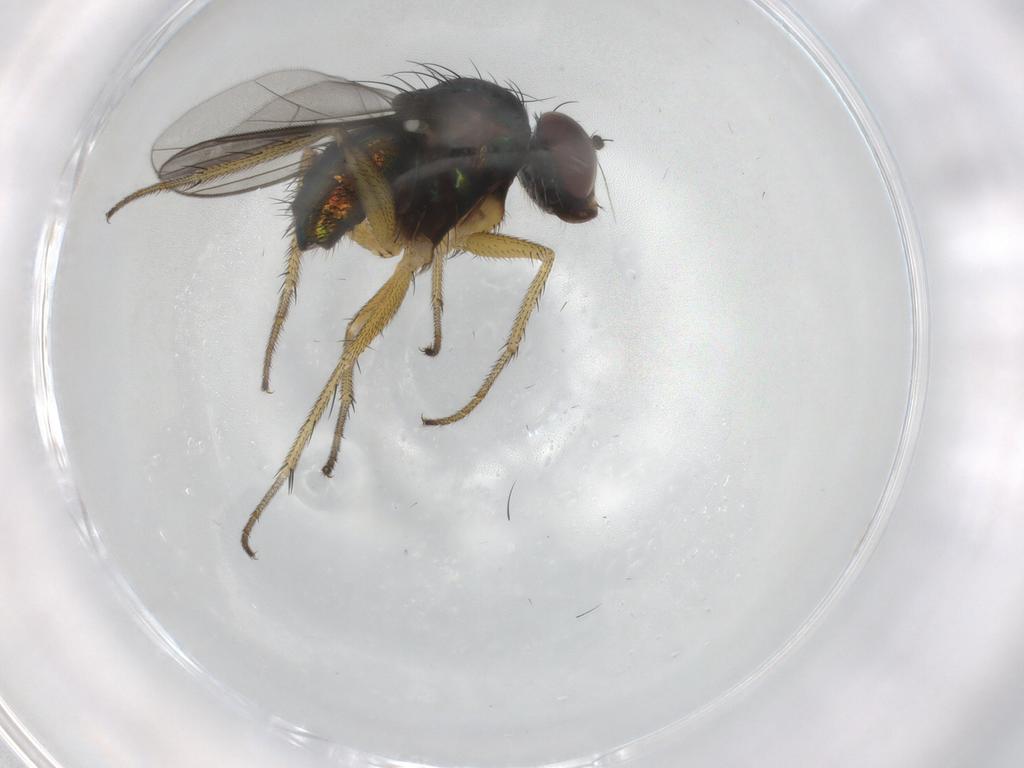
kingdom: Animalia
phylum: Arthropoda
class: Insecta
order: Diptera
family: Dolichopodidae
